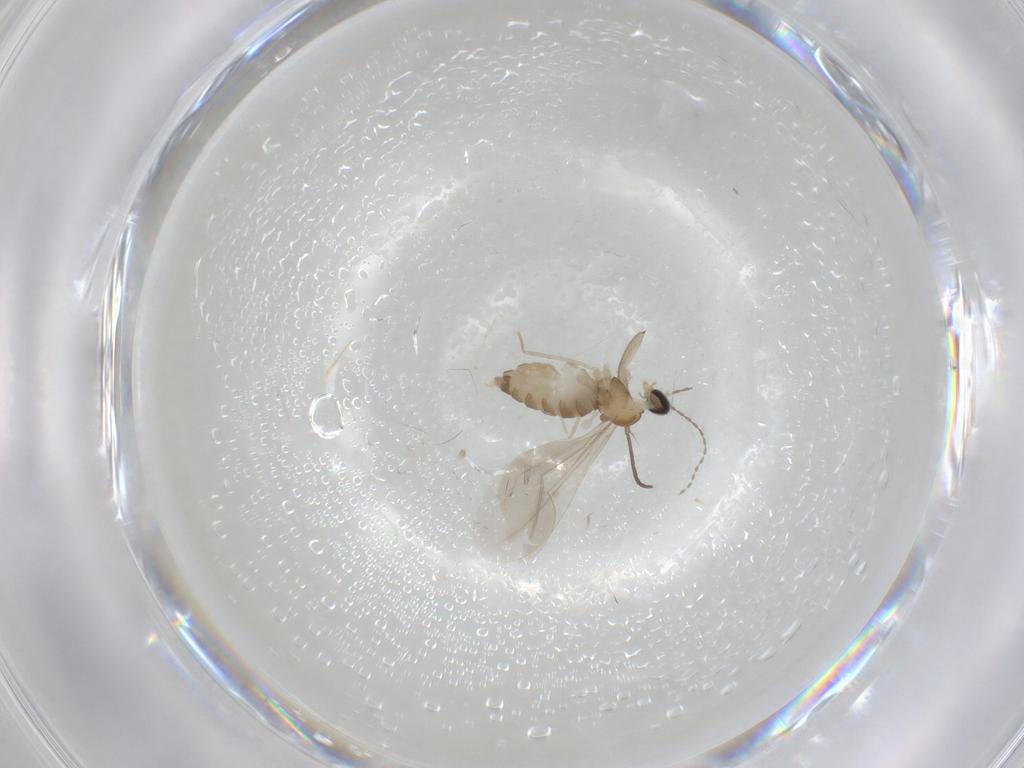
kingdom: Animalia
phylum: Arthropoda
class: Insecta
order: Diptera
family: Cecidomyiidae
